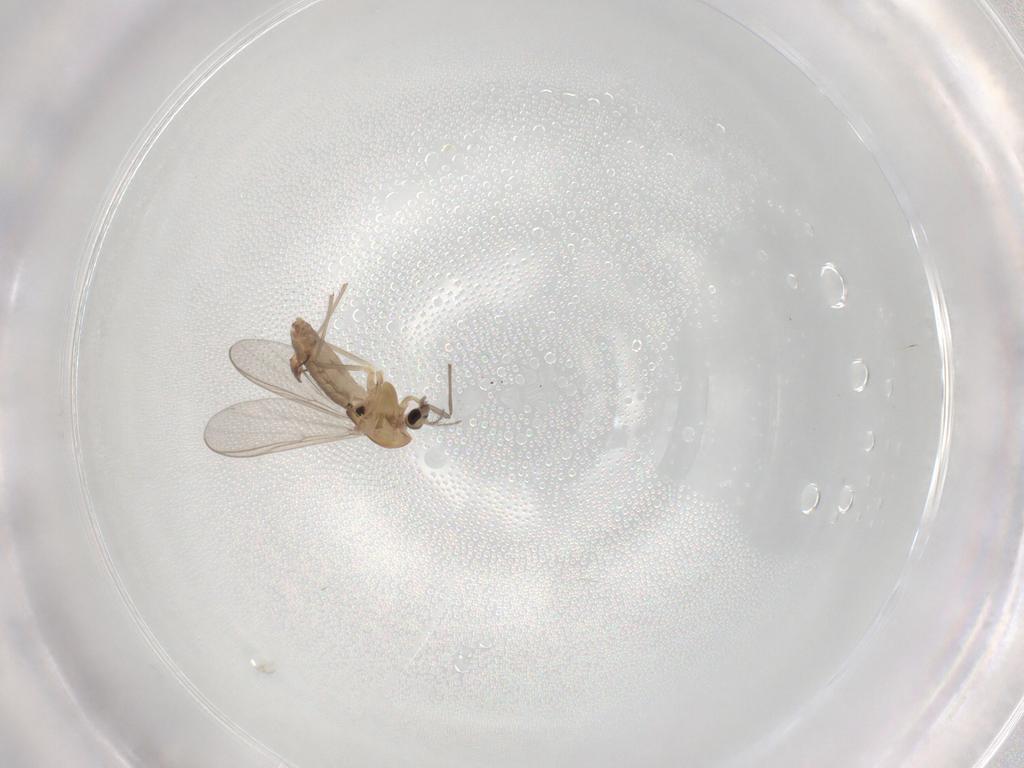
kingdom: Animalia
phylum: Arthropoda
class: Insecta
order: Diptera
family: Chironomidae
